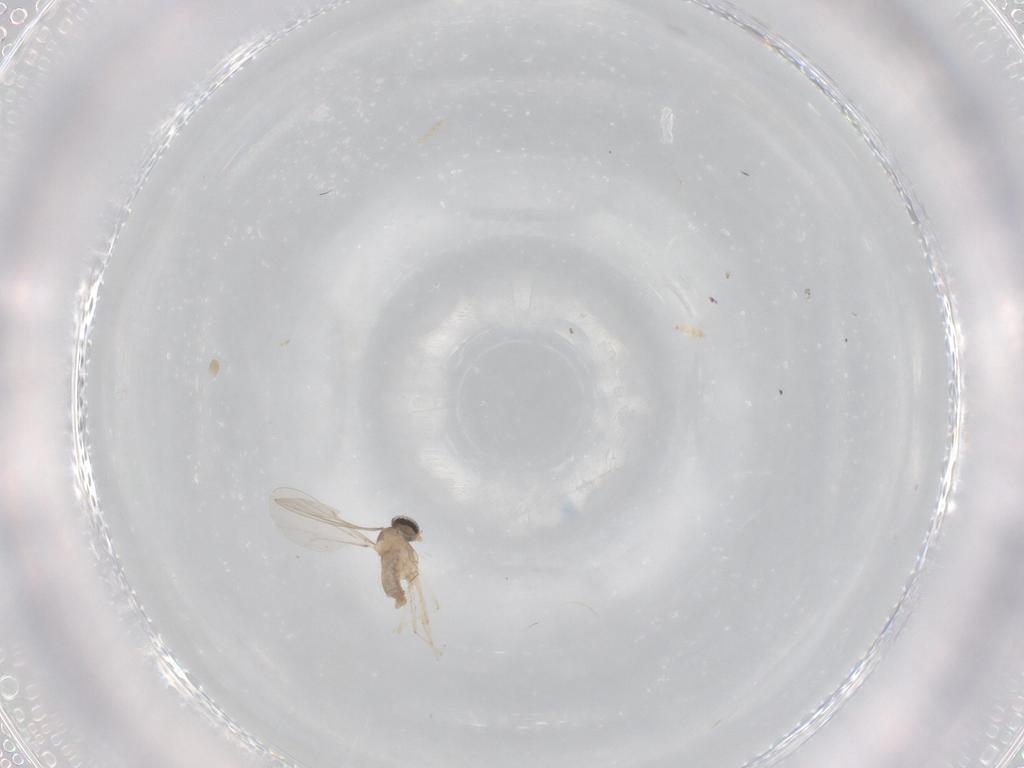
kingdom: Animalia
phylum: Arthropoda
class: Insecta
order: Diptera
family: Cecidomyiidae
